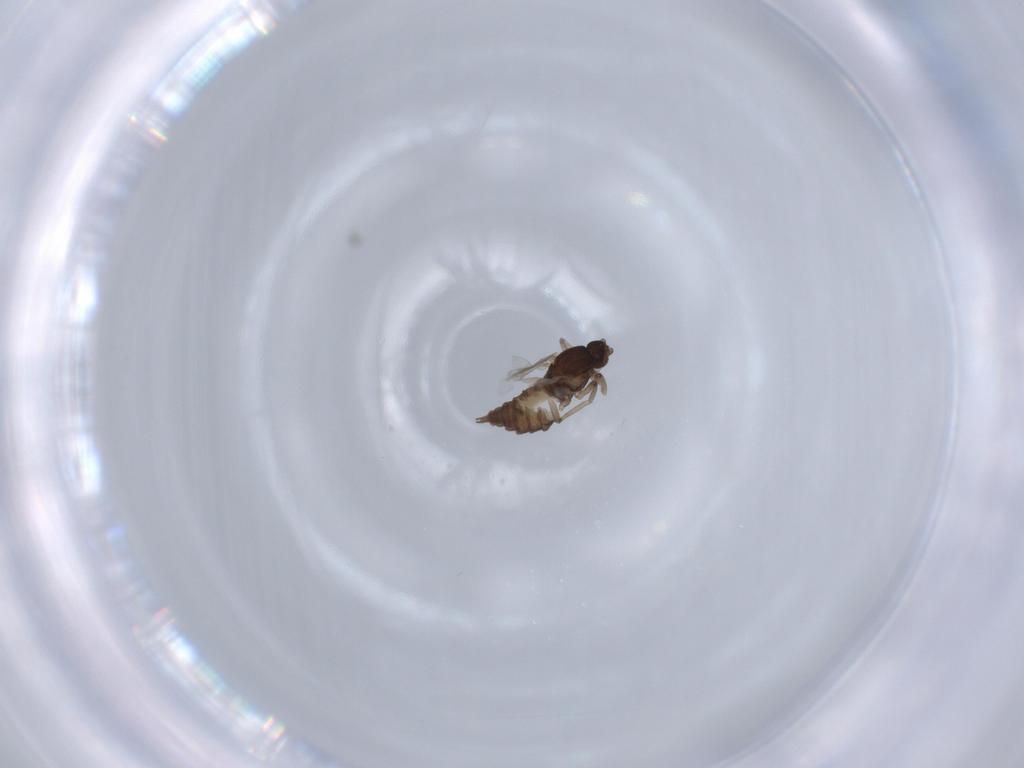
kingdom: Animalia
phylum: Arthropoda
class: Insecta
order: Diptera
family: Cecidomyiidae
